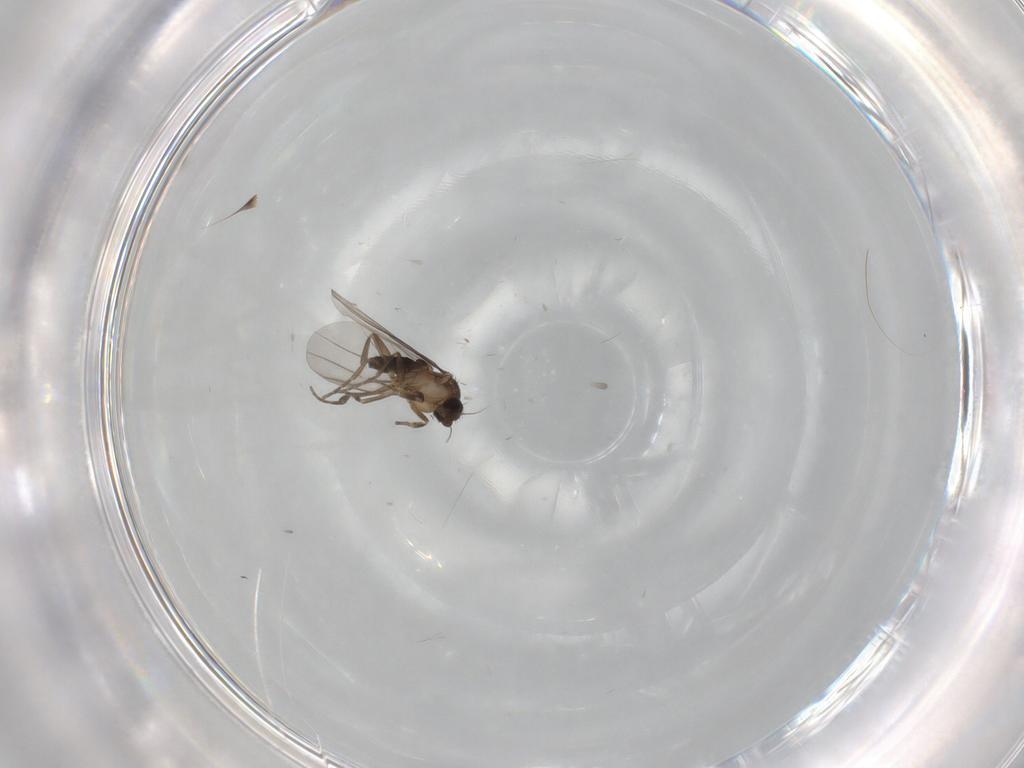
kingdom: Animalia
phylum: Arthropoda
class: Insecta
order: Diptera
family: Phoridae
